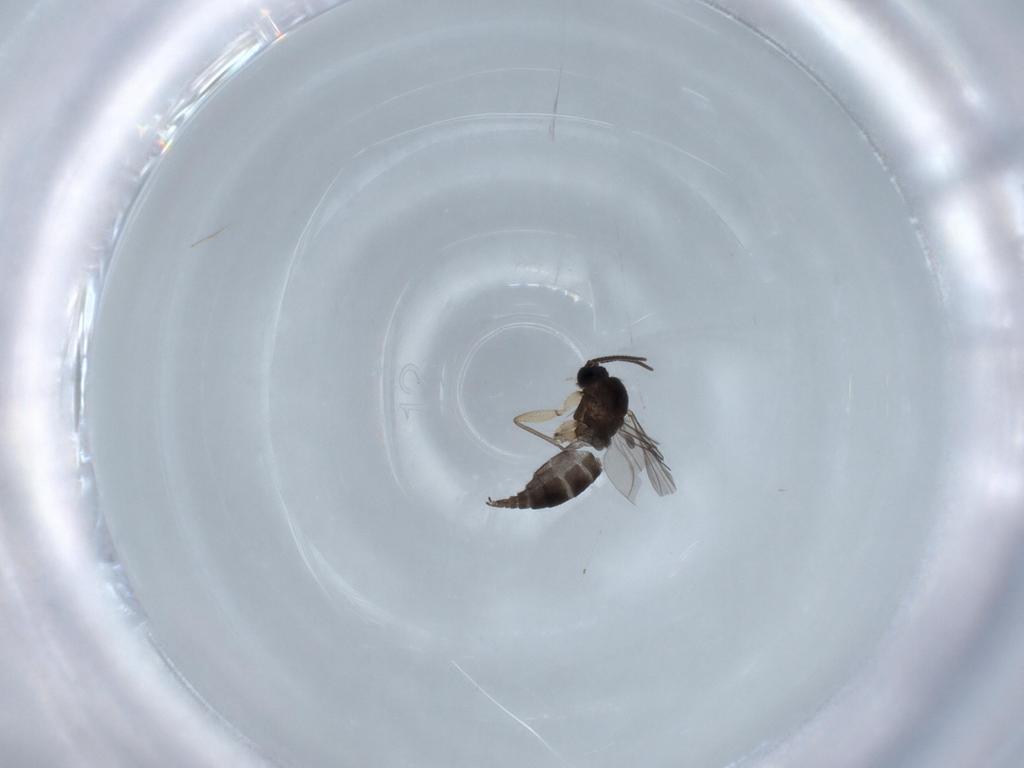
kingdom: Animalia
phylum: Arthropoda
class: Insecta
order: Diptera
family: Sciaridae
